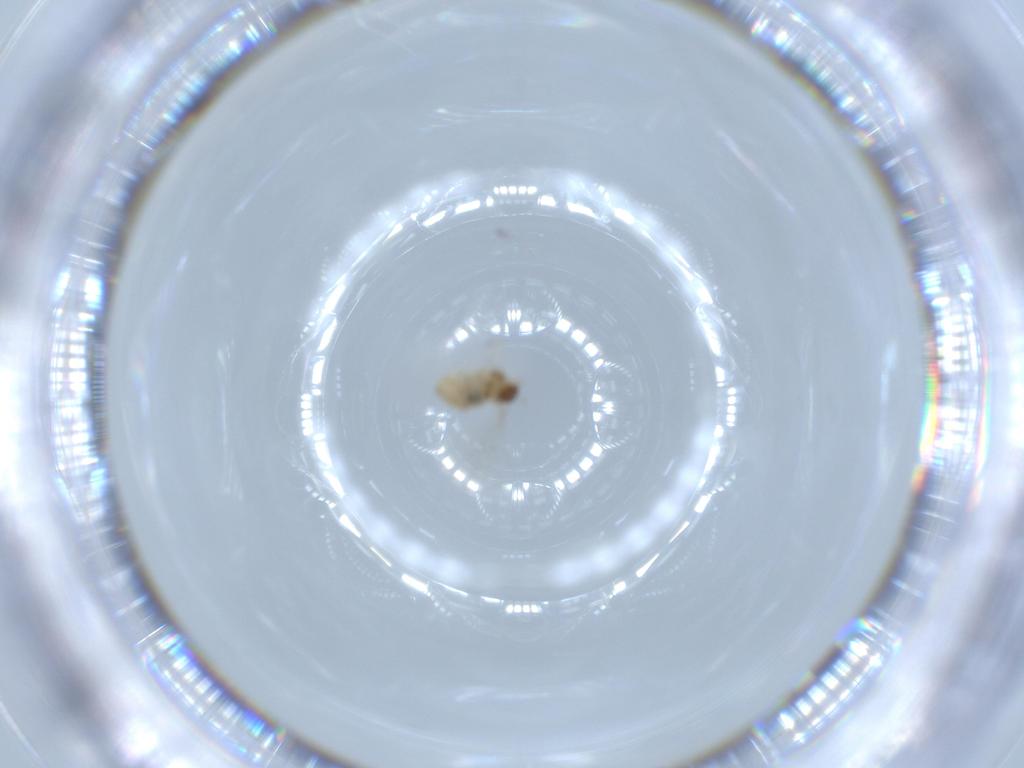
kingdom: Animalia
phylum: Arthropoda
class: Insecta
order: Diptera
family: Cecidomyiidae
